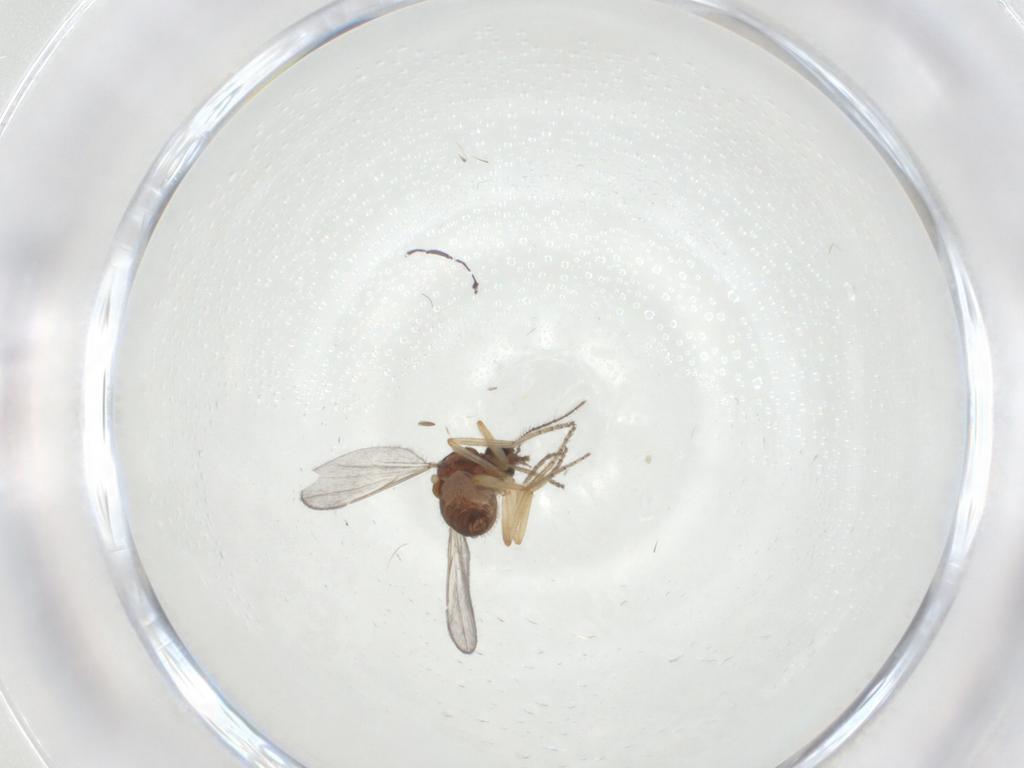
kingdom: Animalia
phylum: Arthropoda
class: Insecta
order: Diptera
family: Ceratopogonidae
